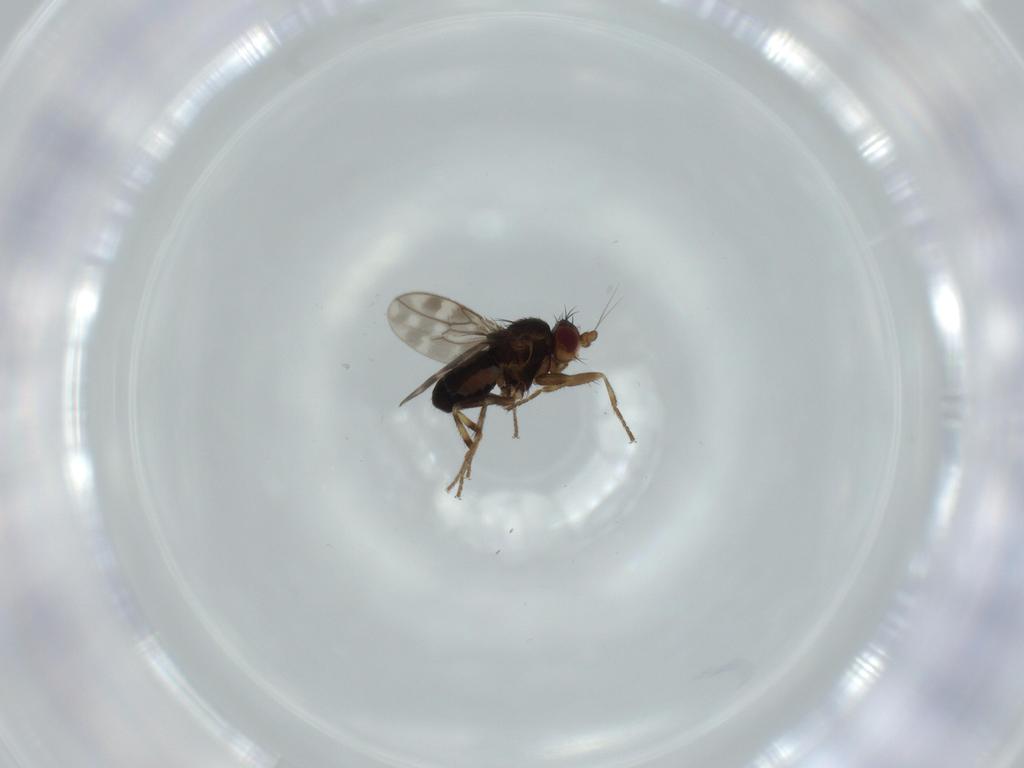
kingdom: Animalia
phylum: Arthropoda
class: Insecta
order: Diptera
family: Sphaeroceridae
